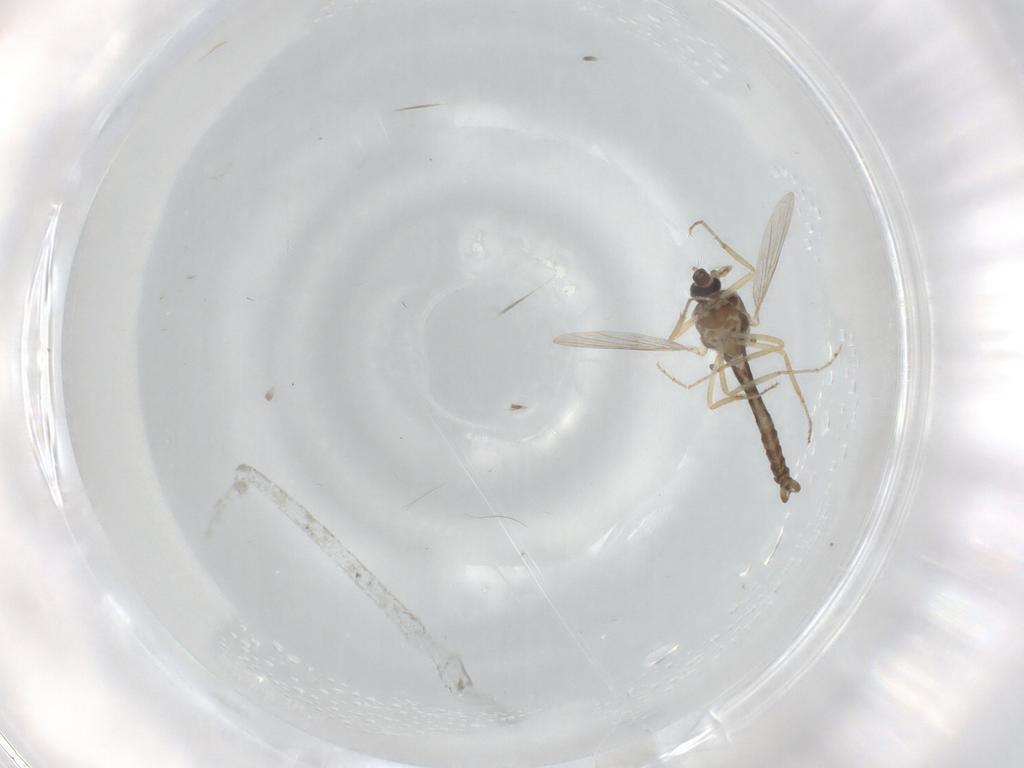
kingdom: Animalia
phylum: Arthropoda
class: Insecta
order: Diptera
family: Ceratopogonidae
